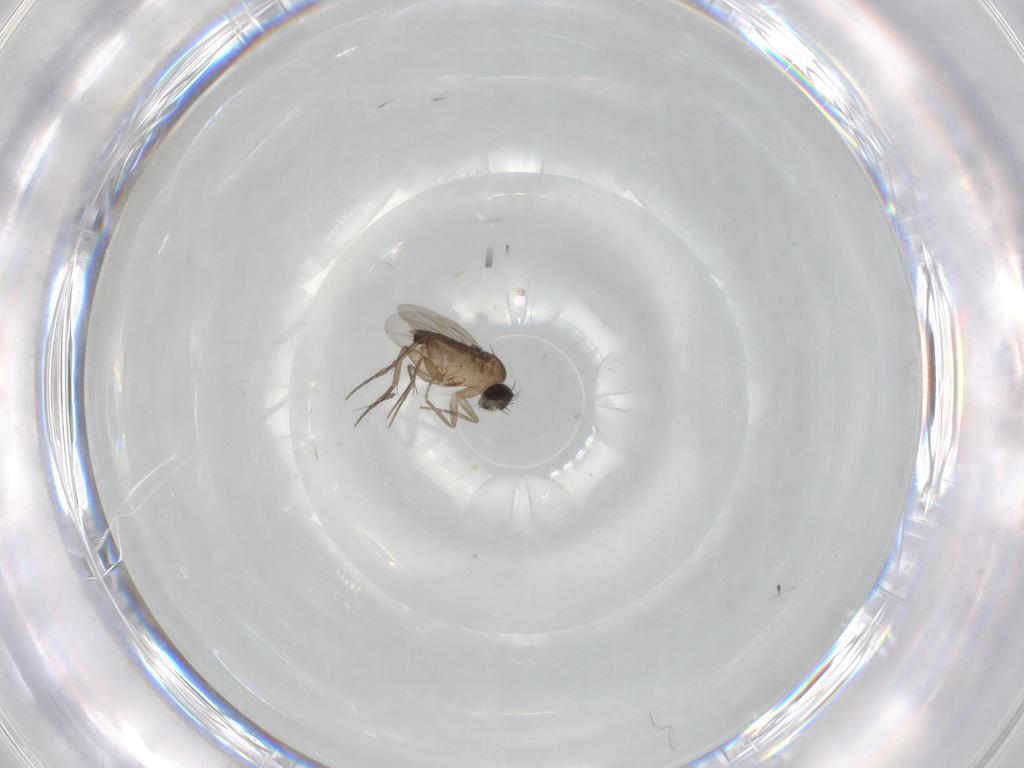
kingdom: Animalia
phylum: Arthropoda
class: Insecta
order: Diptera
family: Phoridae
